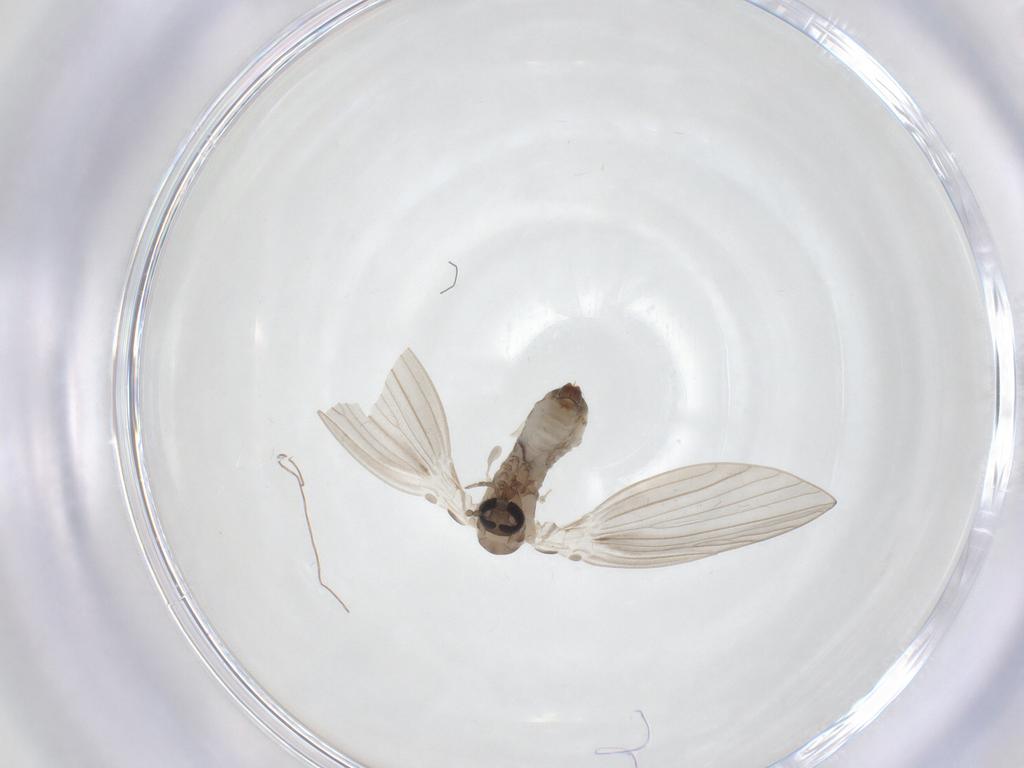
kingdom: Animalia
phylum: Arthropoda
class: Insecta
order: Diptera
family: Psychodidae
